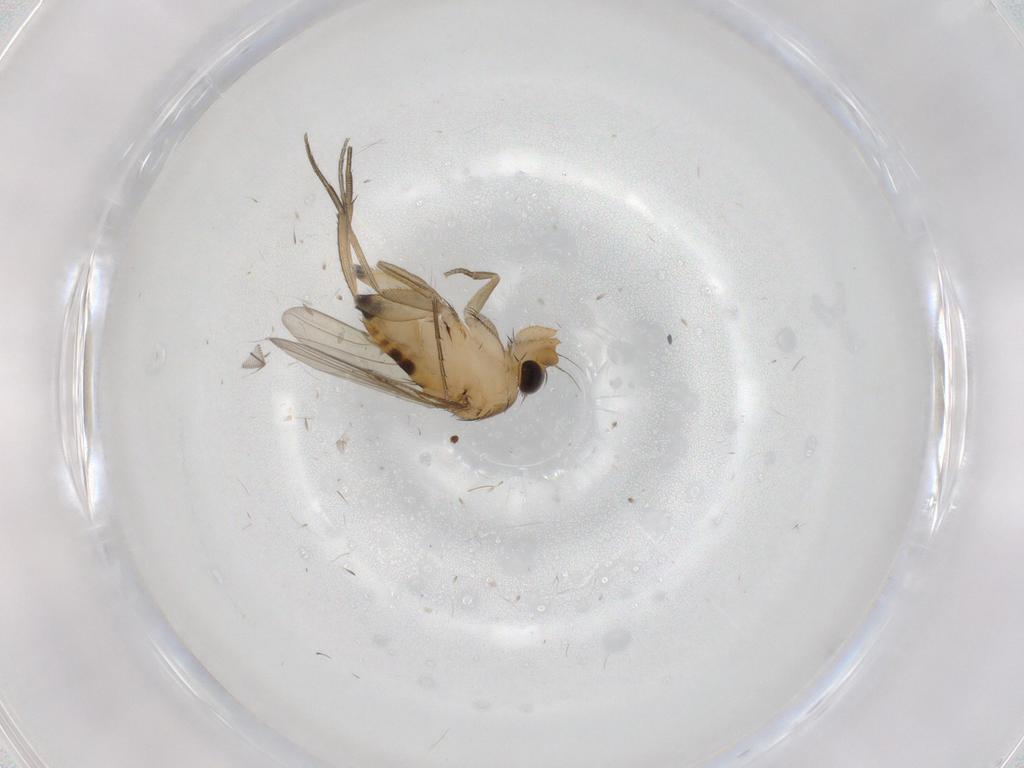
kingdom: Animalia
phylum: Arthropoda
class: Insecta
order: Diptera
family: Phoridae
